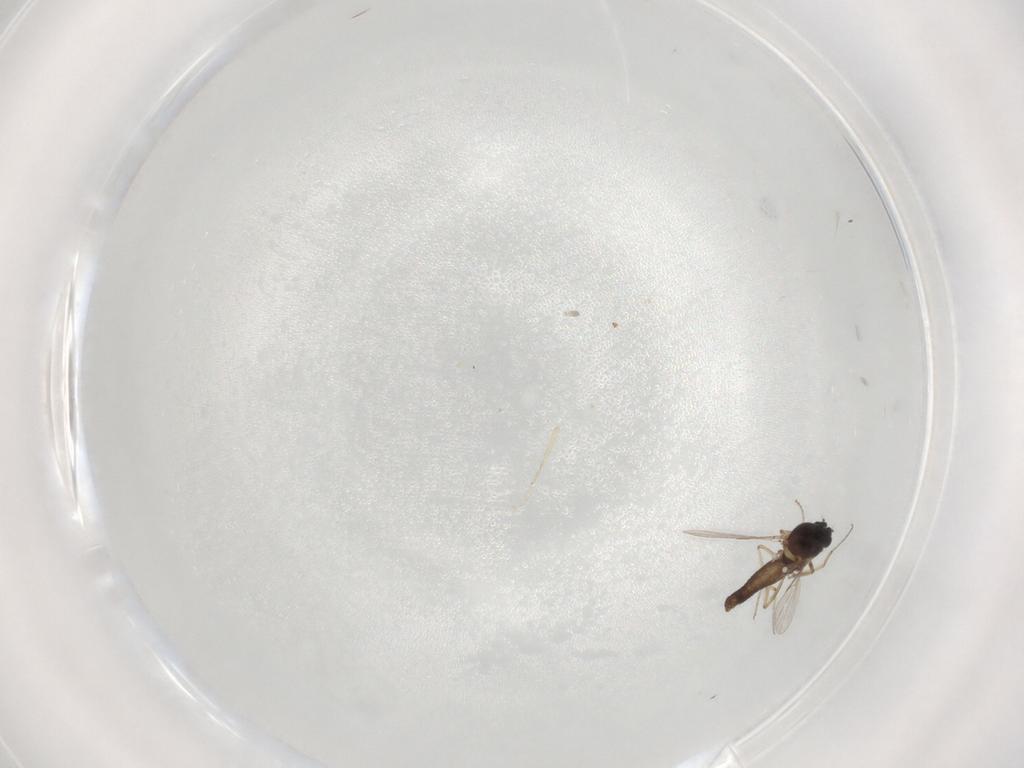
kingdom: Animalia
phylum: Arthropoda
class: Insecta
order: Diptera
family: Ceratopogonidae
